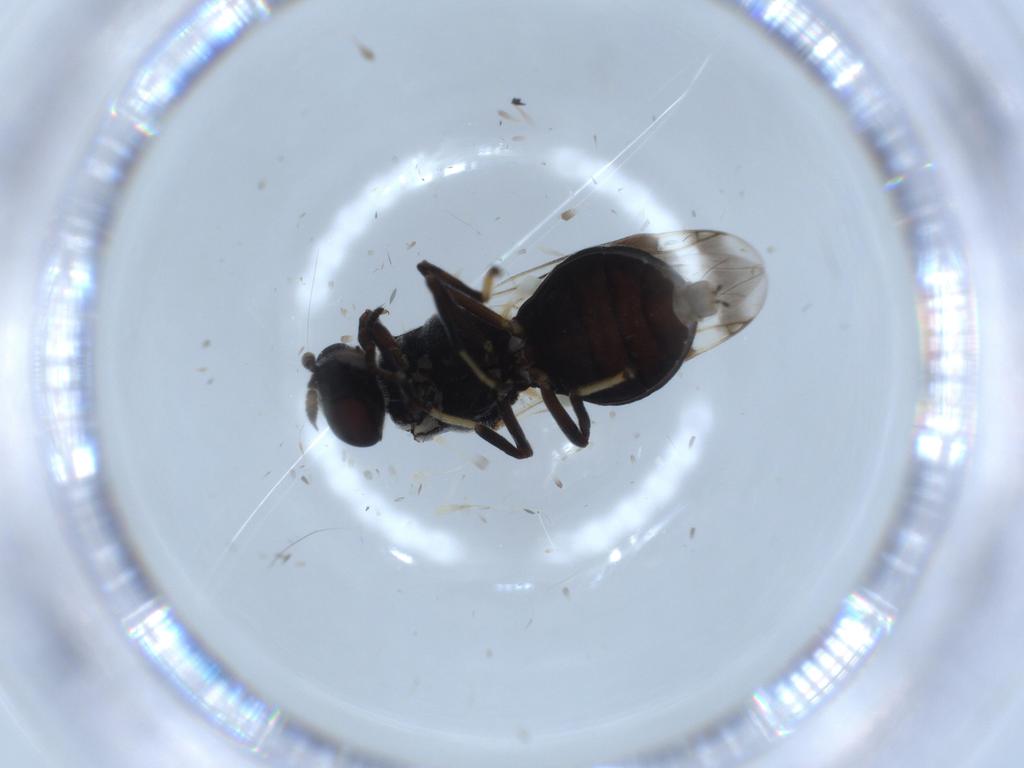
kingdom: Animalia
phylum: Arthropoda
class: Insecta
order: Diptera
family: Stratiomyidae
